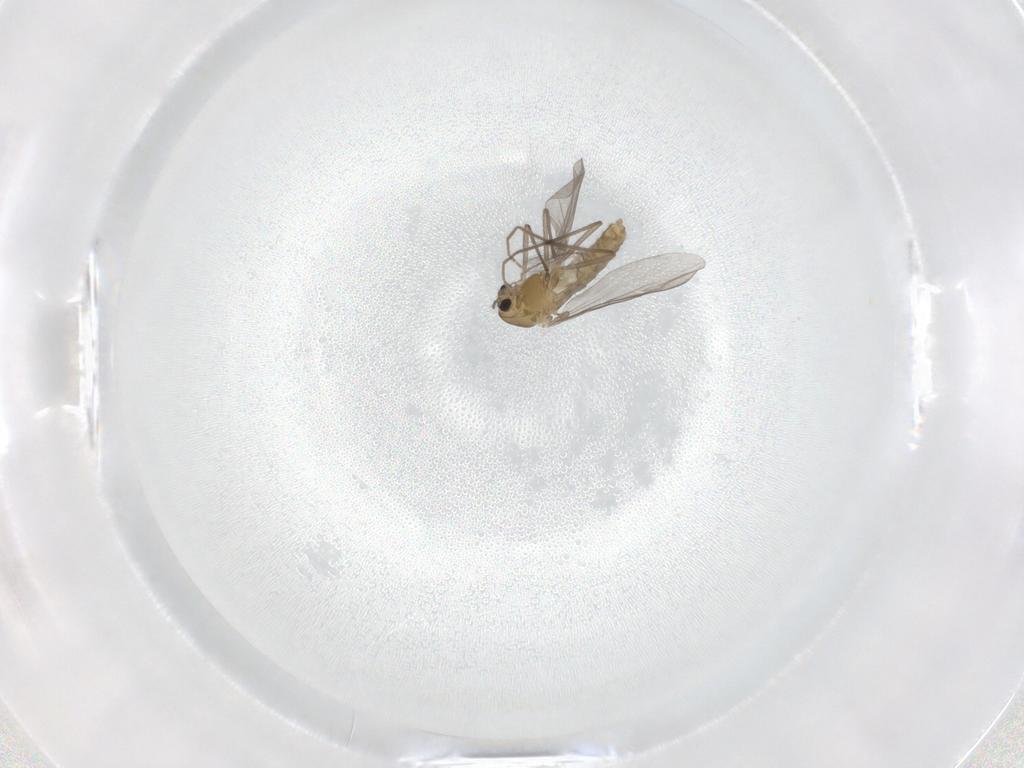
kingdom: Animalia
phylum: Arthropoda
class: Insecta
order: Diptera
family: Chironomidae
